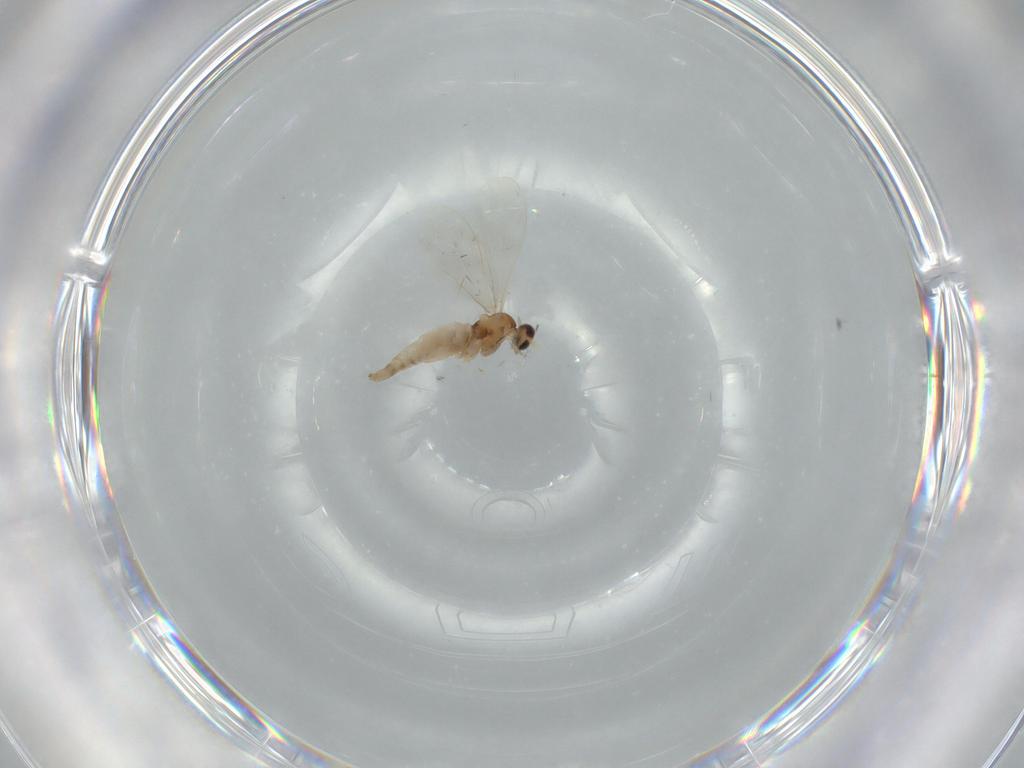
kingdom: Animalia
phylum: Arthropoda
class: Insecta
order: Diptera
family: Cecidomyiidae
